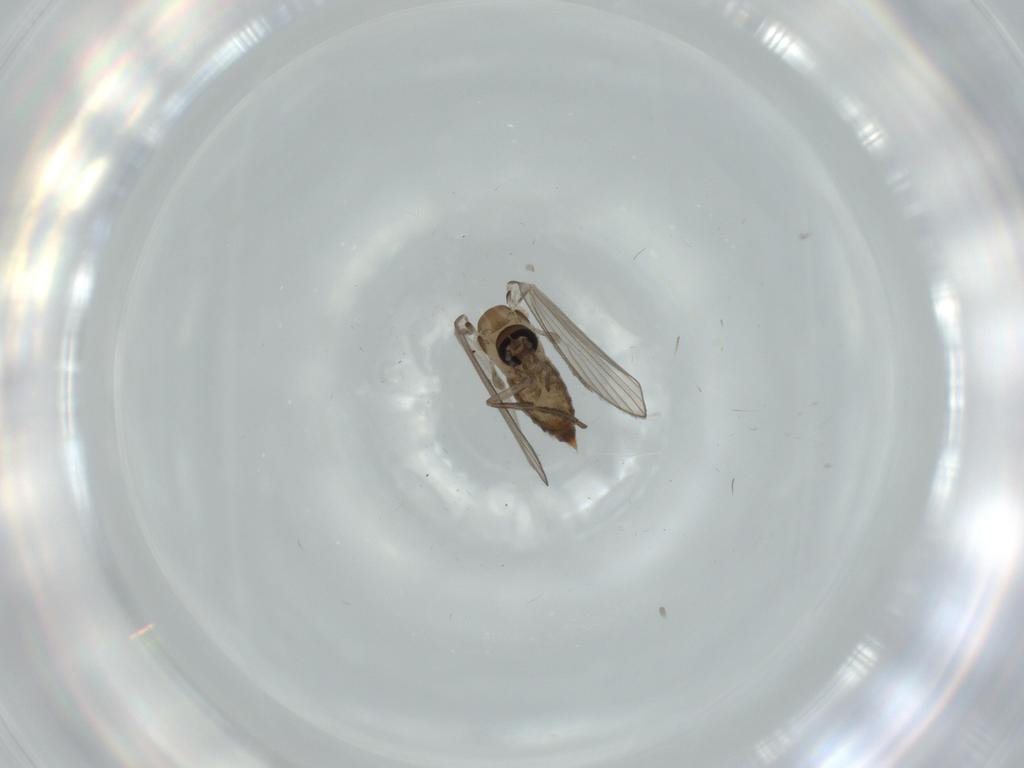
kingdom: Animalia
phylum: Arthropoda
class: Insecta
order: Diptera
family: Psychodidae
